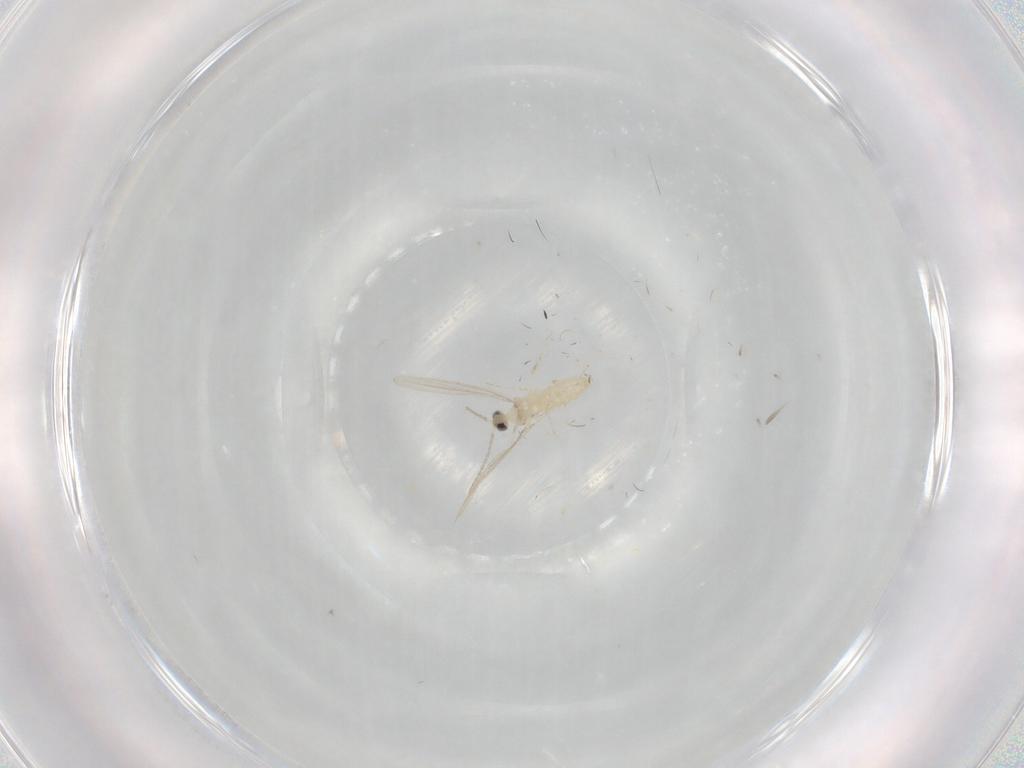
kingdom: Animalia
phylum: Arthropoda
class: Insecta
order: Diptera
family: Cecidomyiidae
